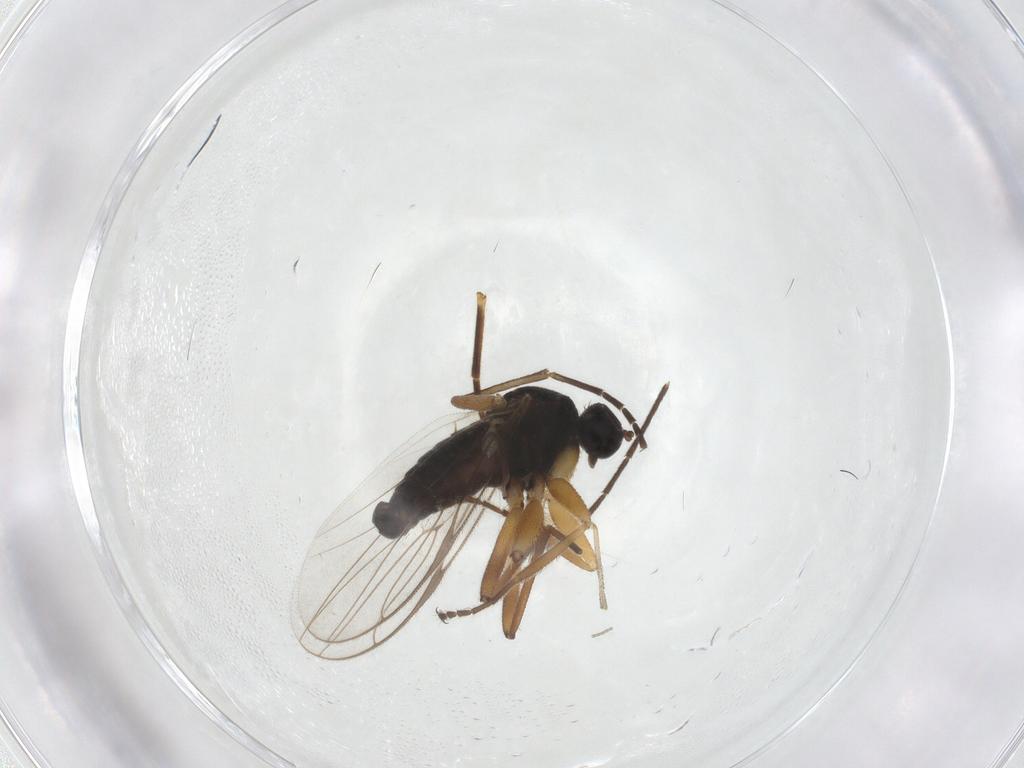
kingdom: Animalia
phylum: Arthropoda
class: Insecta
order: Diptera
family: Hybotidae
